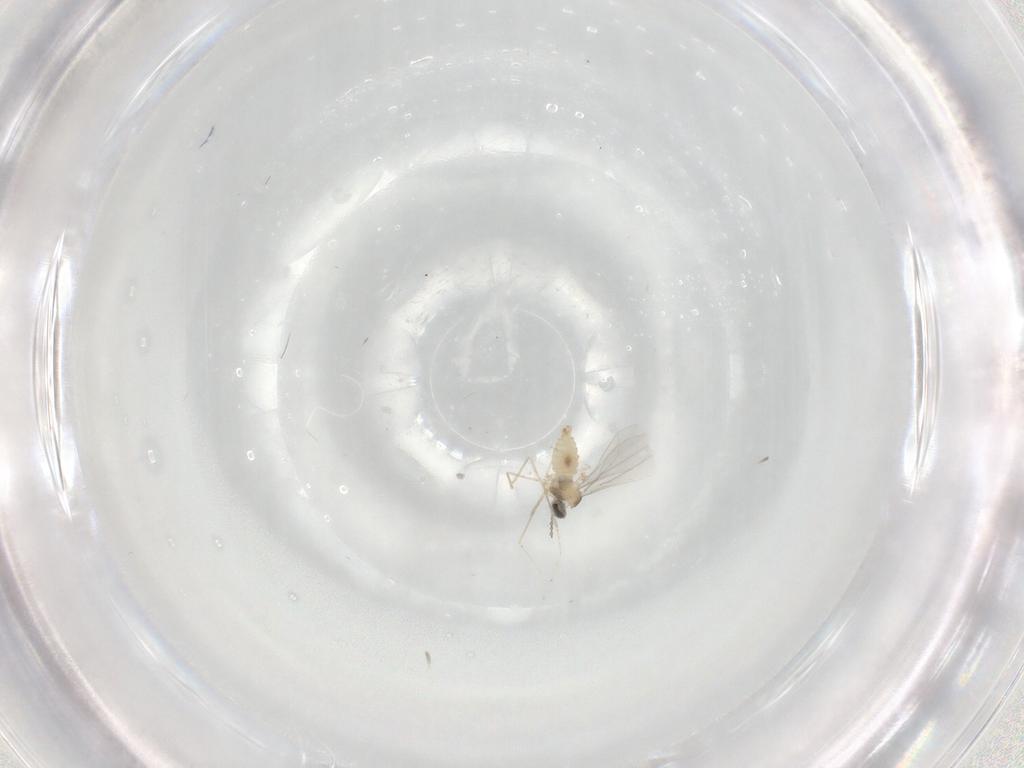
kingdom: Animalia
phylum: Arthropoda
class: Insecta
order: Diptera
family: Chironomidae
